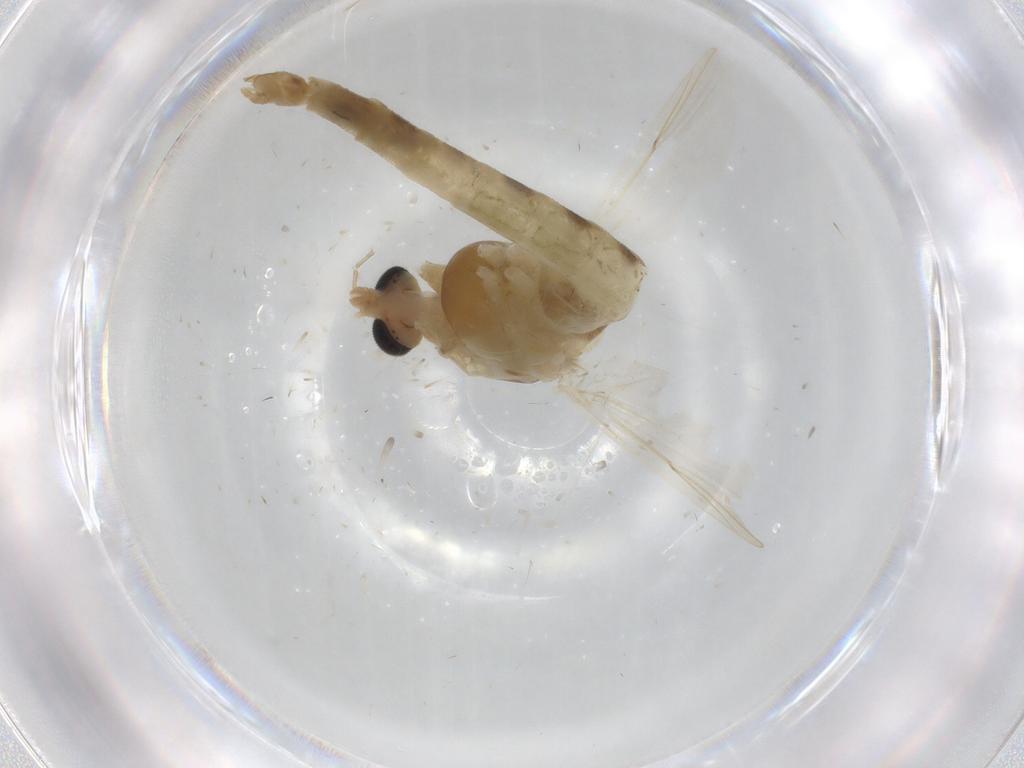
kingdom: Animalia
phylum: Arthropoda
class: Insecta
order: Diptera
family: Chironomidae
